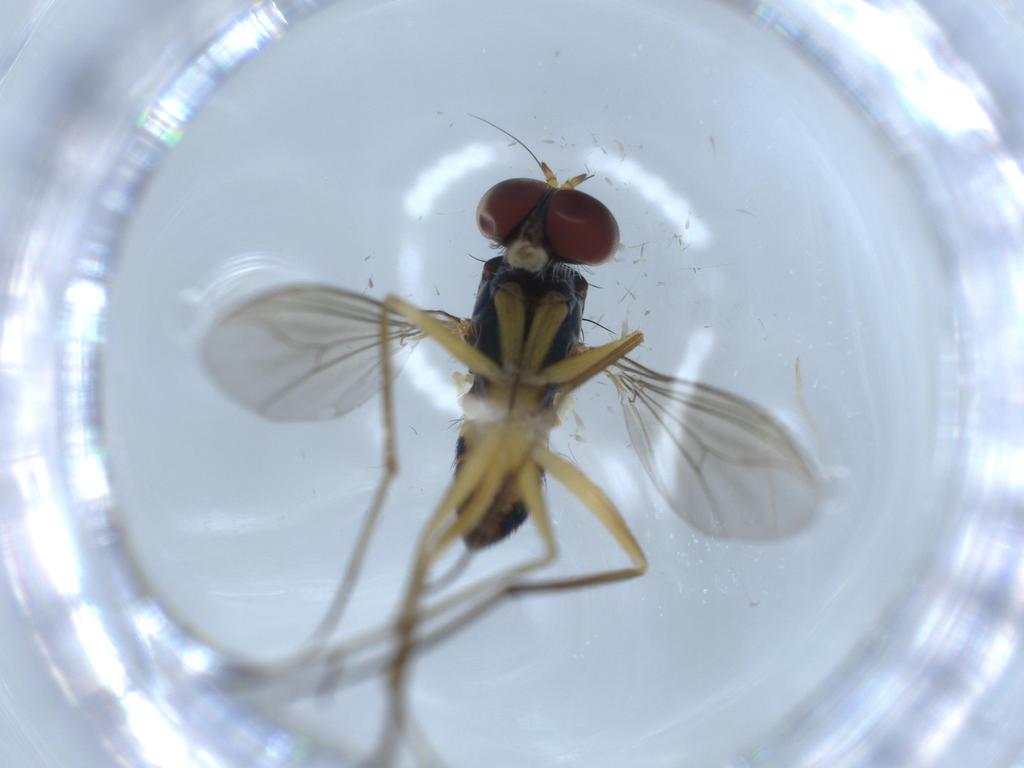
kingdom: Animalia
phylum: Arthropoda
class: Insecta
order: Diptera
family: Dolichopodidae
